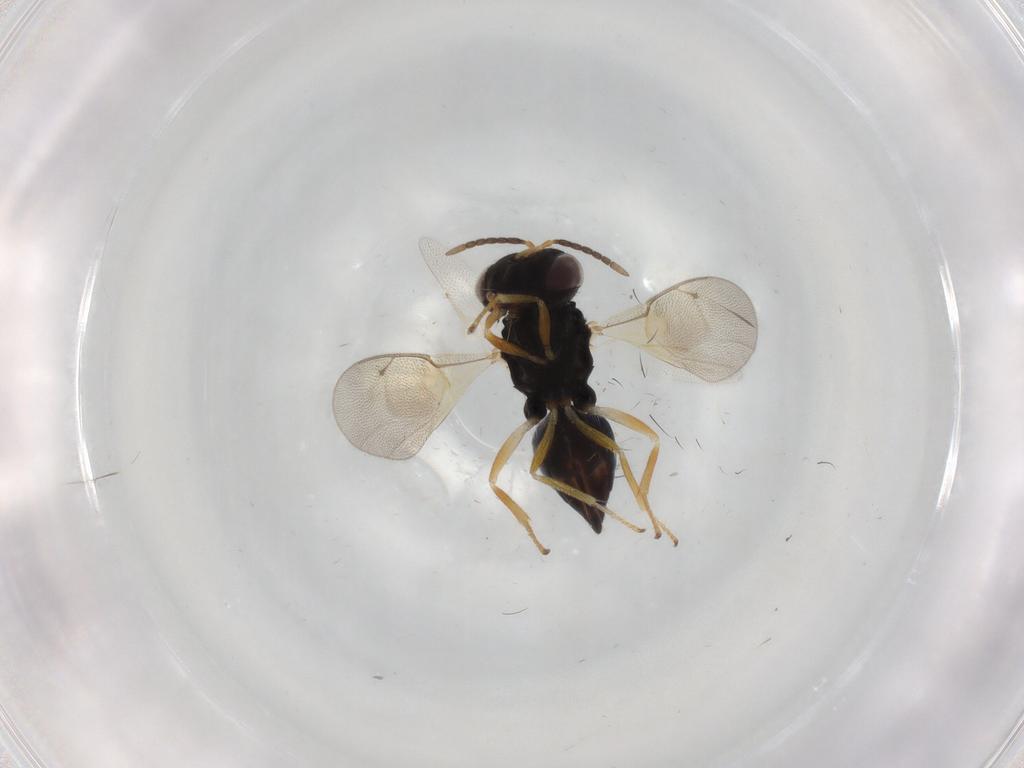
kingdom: Animalia
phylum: Arthropoda
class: Insecta
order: Hymenoptera
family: Pteromalidae
